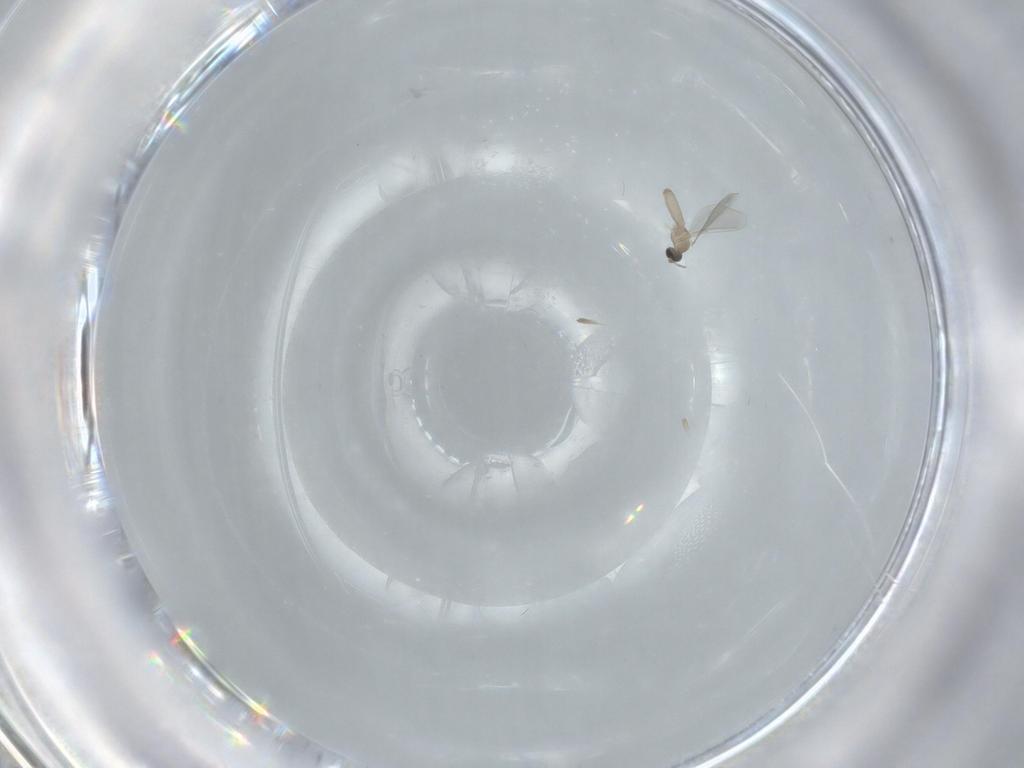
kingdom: Animalia
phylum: Arthropoda
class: Insecta
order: Diptera
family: Cecidomyiidae
